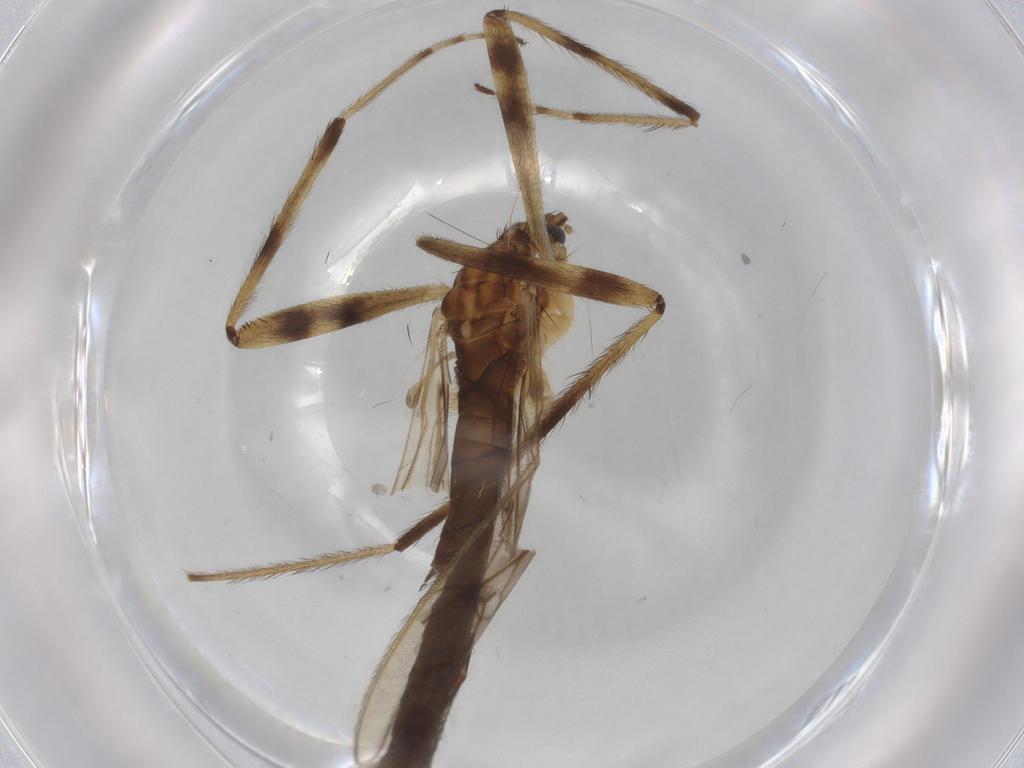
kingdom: Animalia
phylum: Arthropoda
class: Insecta
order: Diptera
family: Limoniidae
